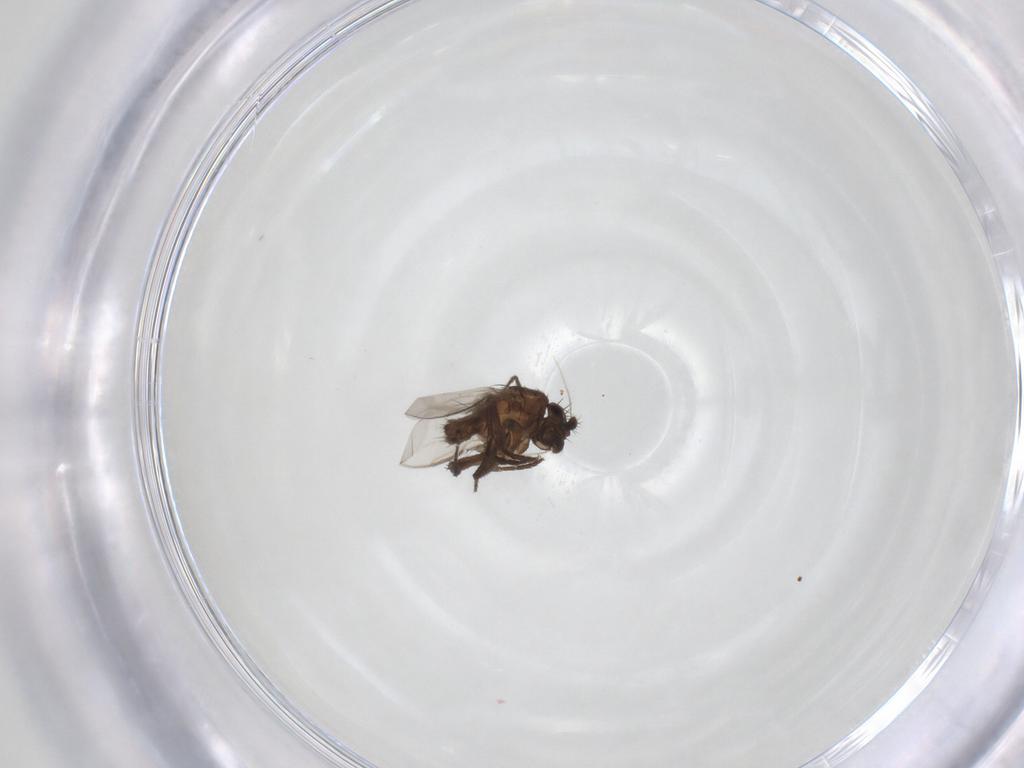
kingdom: Animalia
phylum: Arthropoda
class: Insecta
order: Diptera
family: Sphaeroceridae
